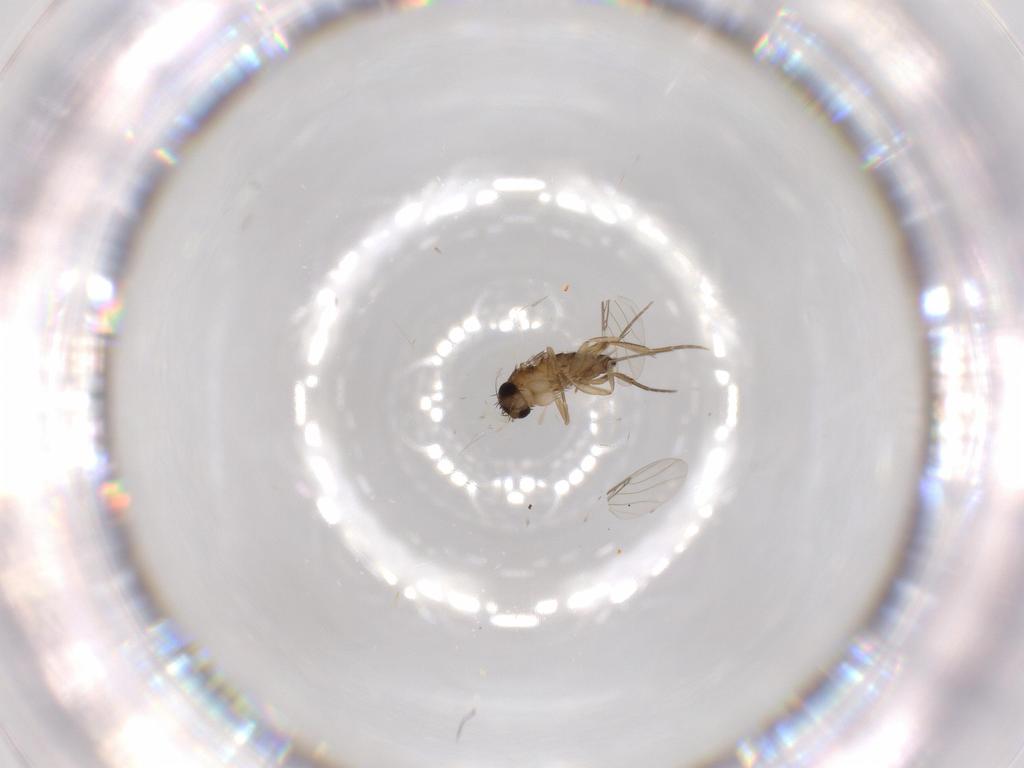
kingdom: Animalia
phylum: Arthropoda
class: Insecta
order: Diptera
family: Phoridae
